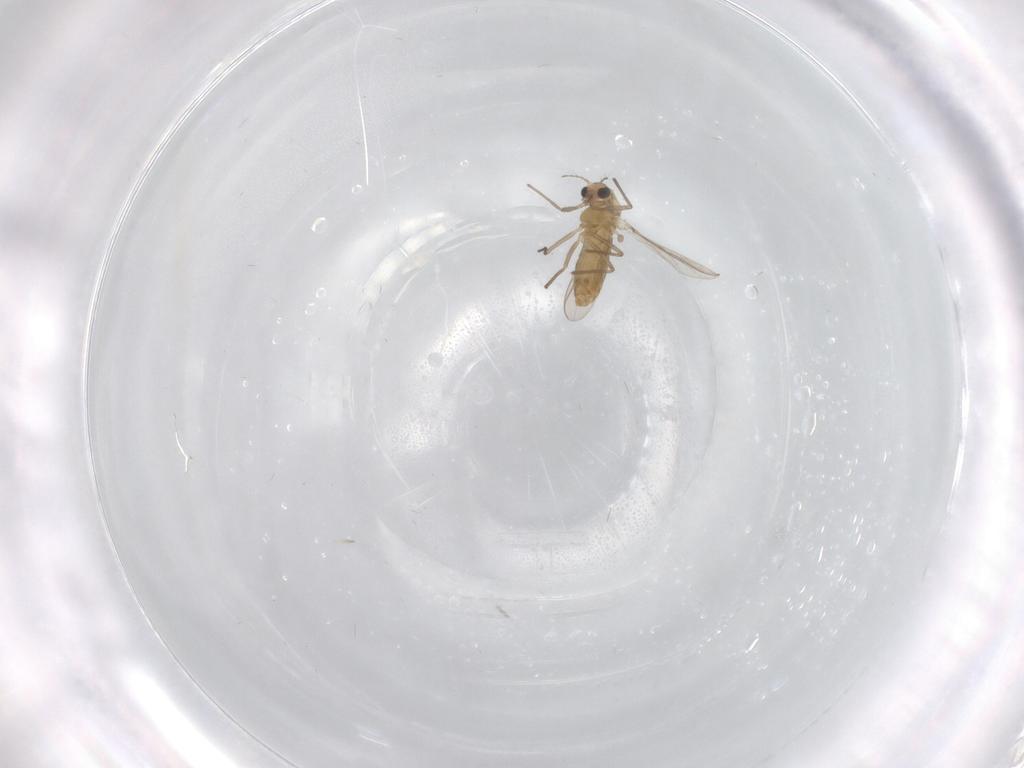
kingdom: Animalia
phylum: Arthropoda
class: Insecta
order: Diptera
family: Chironomidae
